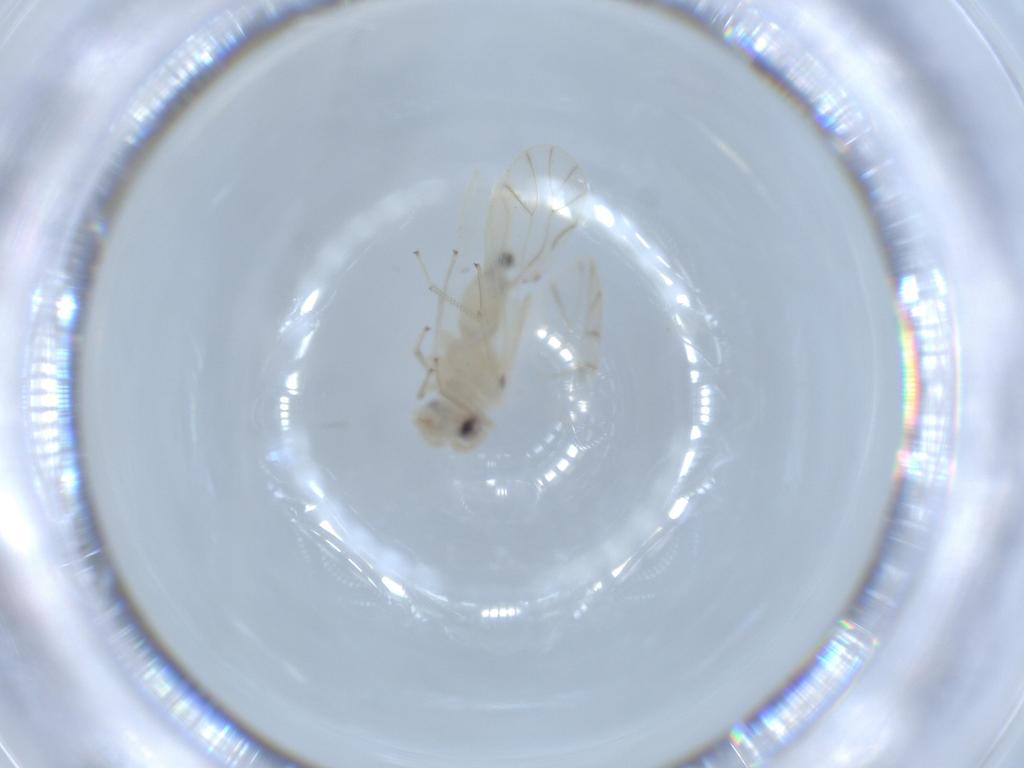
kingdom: Animalia
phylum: Arthropoda
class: Insecta
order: Psocodea
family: Caeciliusidae
